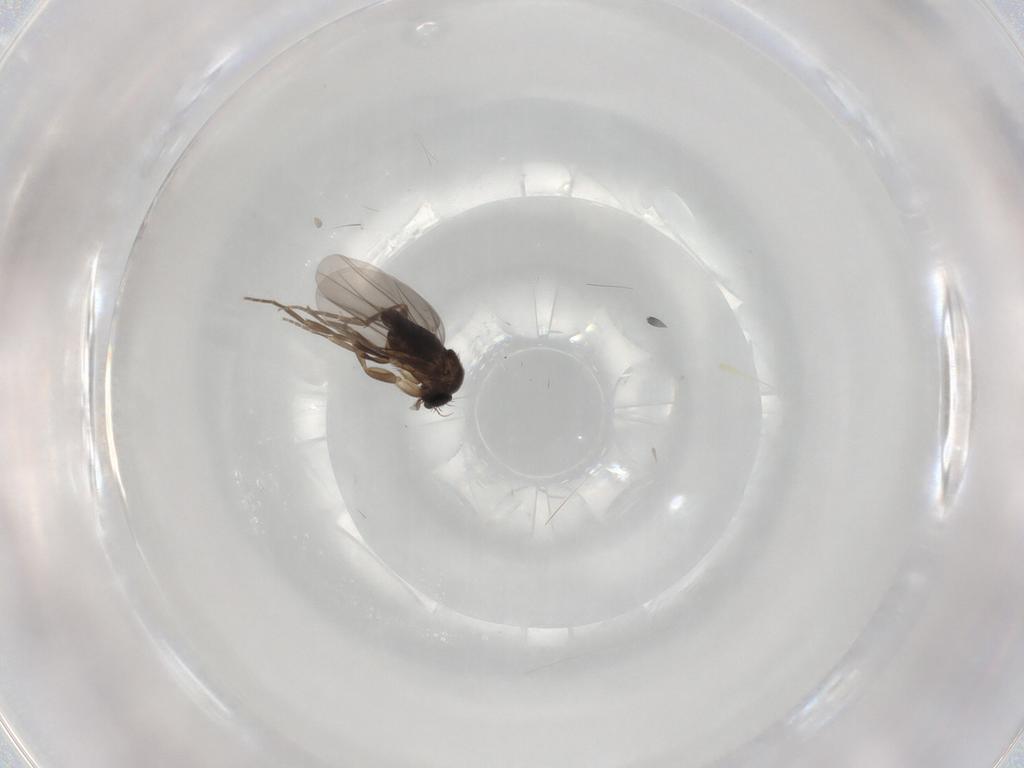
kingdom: Animalia
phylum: Arthropoda
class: Insecta
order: Diptera
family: Phoridae
